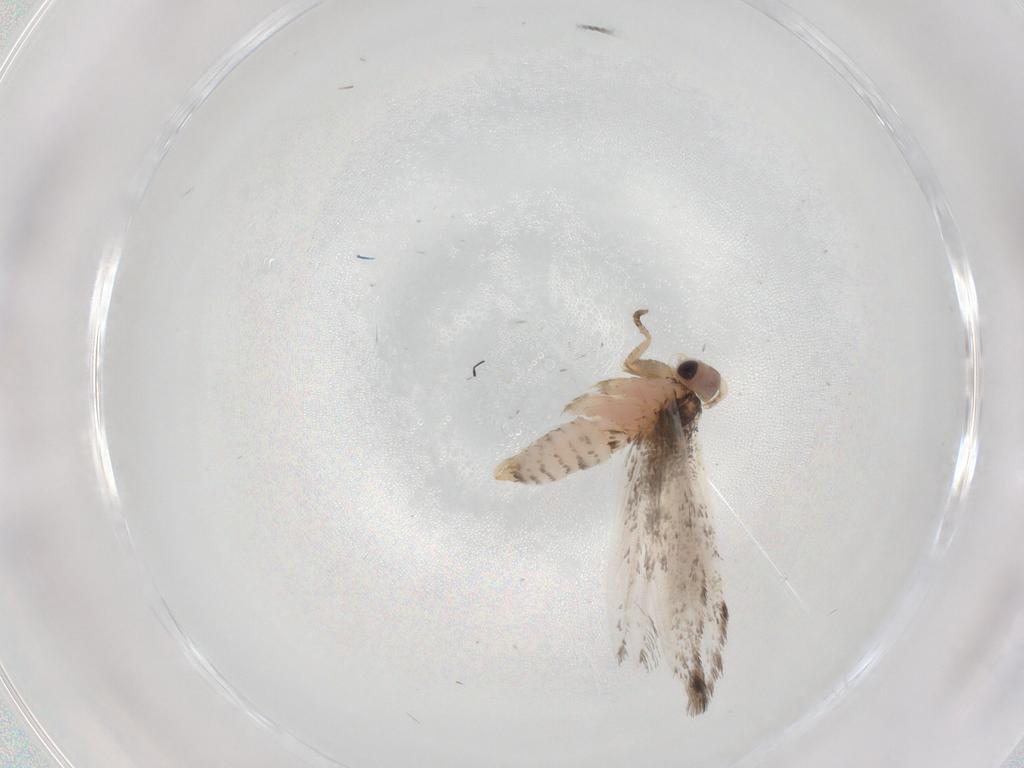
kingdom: Animalia
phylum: Arthropoda
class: Insecta
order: Lepidoptera
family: Tineidae
